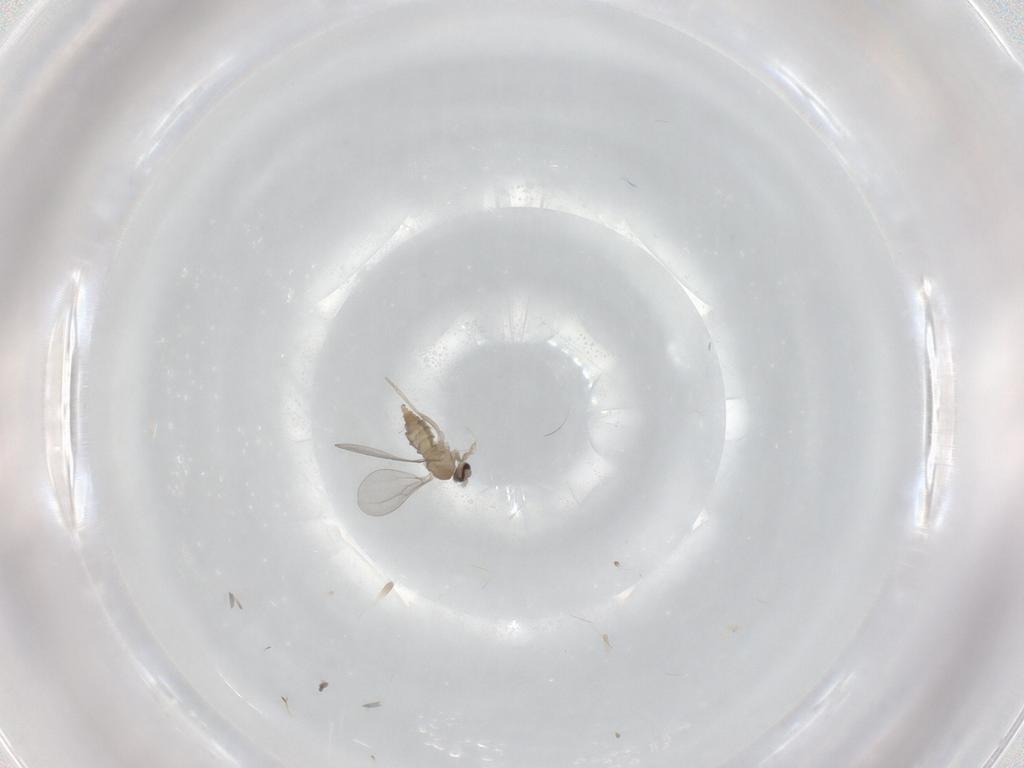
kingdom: Animalia
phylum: Arthropoda
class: Insecta
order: Diptera
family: Cecidomyiidae
